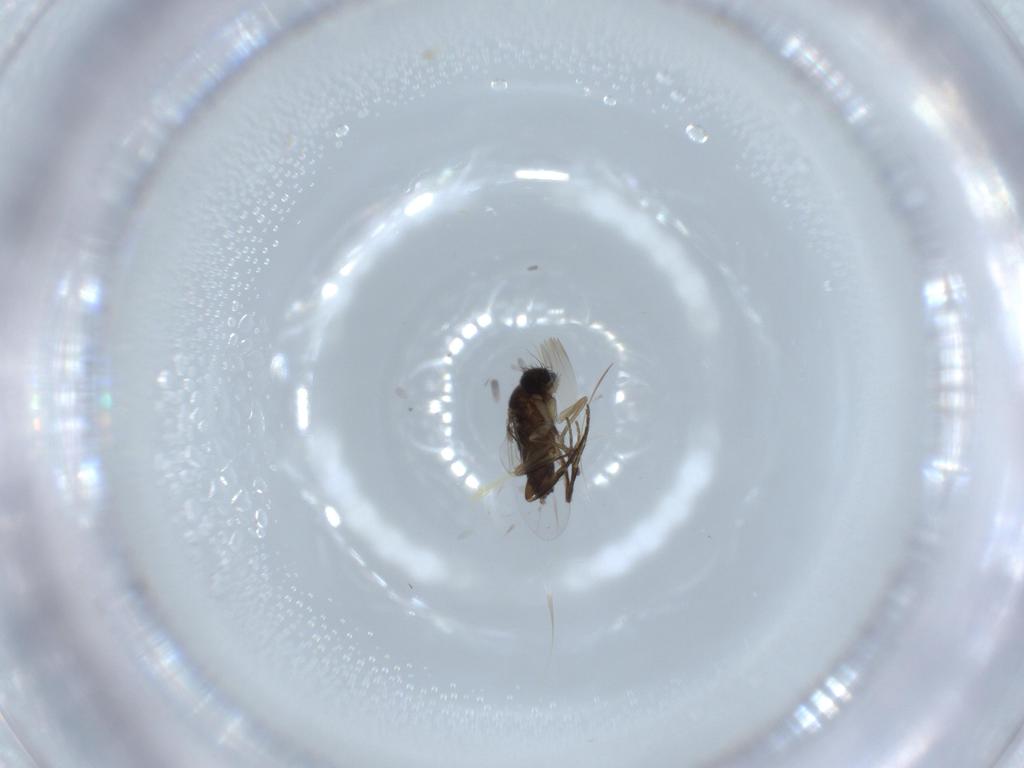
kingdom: Animalia
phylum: Arthropoda
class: Insecta
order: Diptera
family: Phoridae
